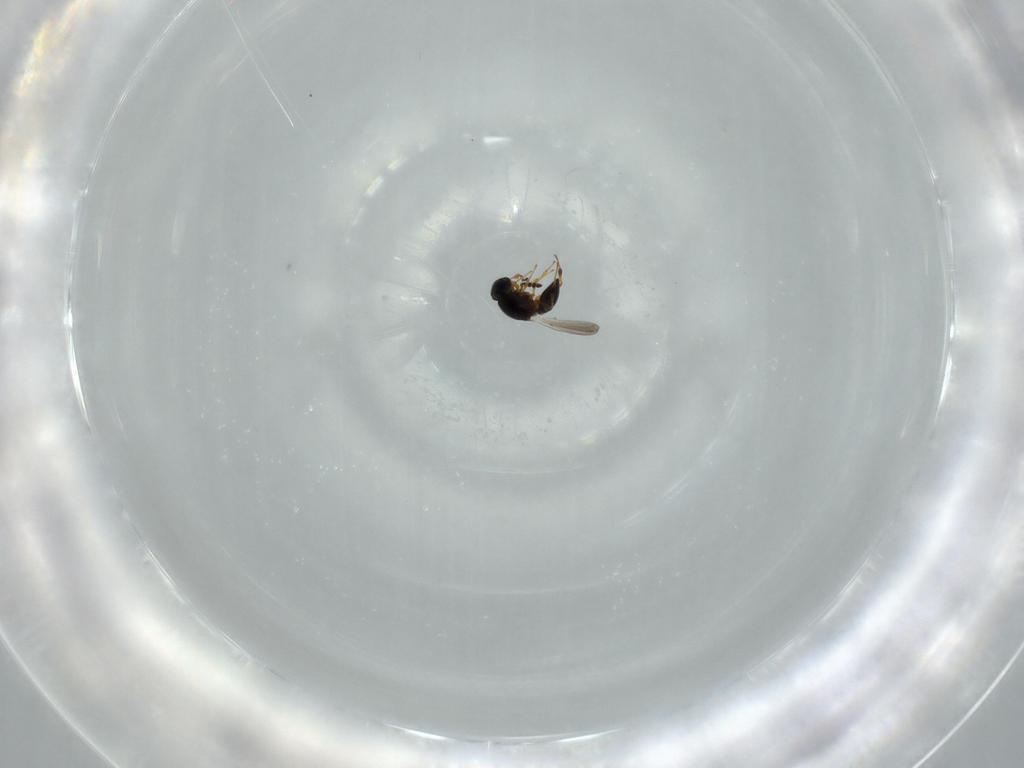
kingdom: Animalia
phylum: Arthropoda
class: Insecta
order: Hymenoptera
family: Platygastridae
